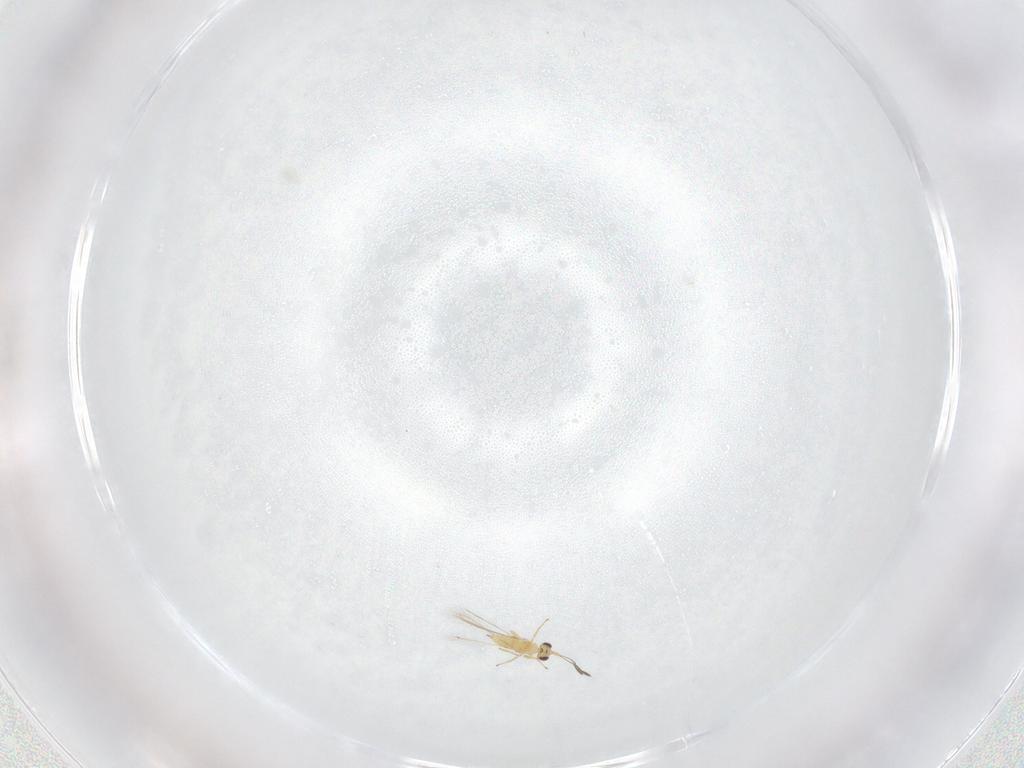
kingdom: Animalia
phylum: Arthropoda
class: Insecta
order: Hymenoptera
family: Mymaridae
